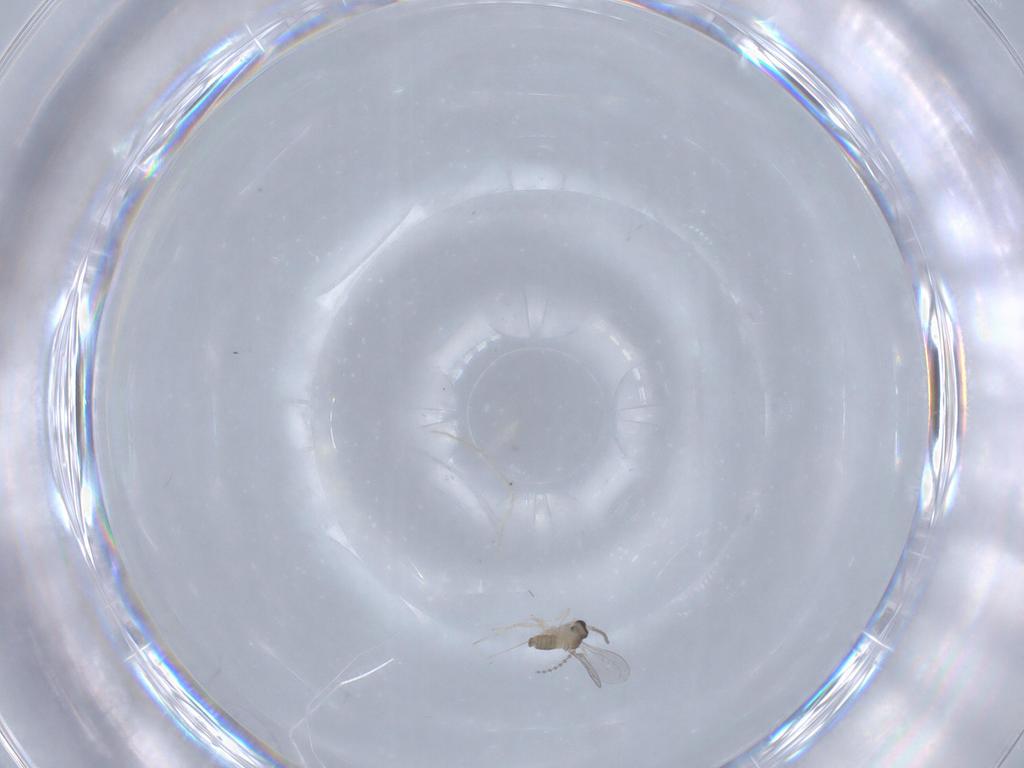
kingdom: Animalia
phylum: Arthropoda
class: Insecta
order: Diptera
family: Cecidomyiidae
